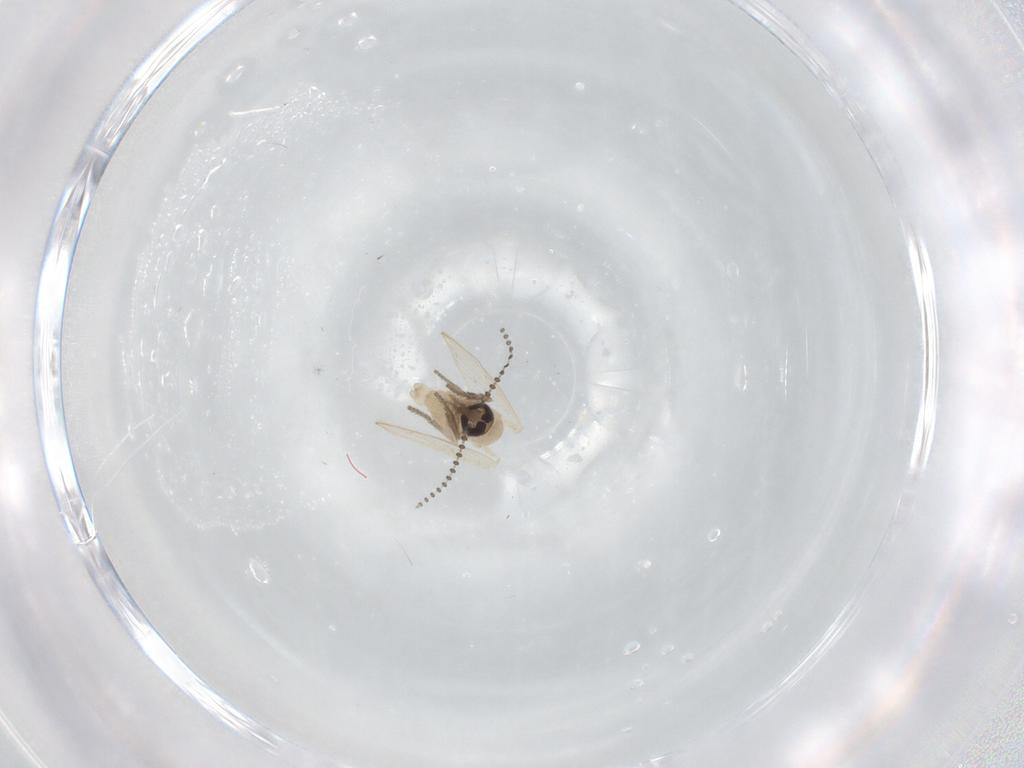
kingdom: Animalia
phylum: Arthropoda
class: Insecta
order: Diptera
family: Psychodidae
